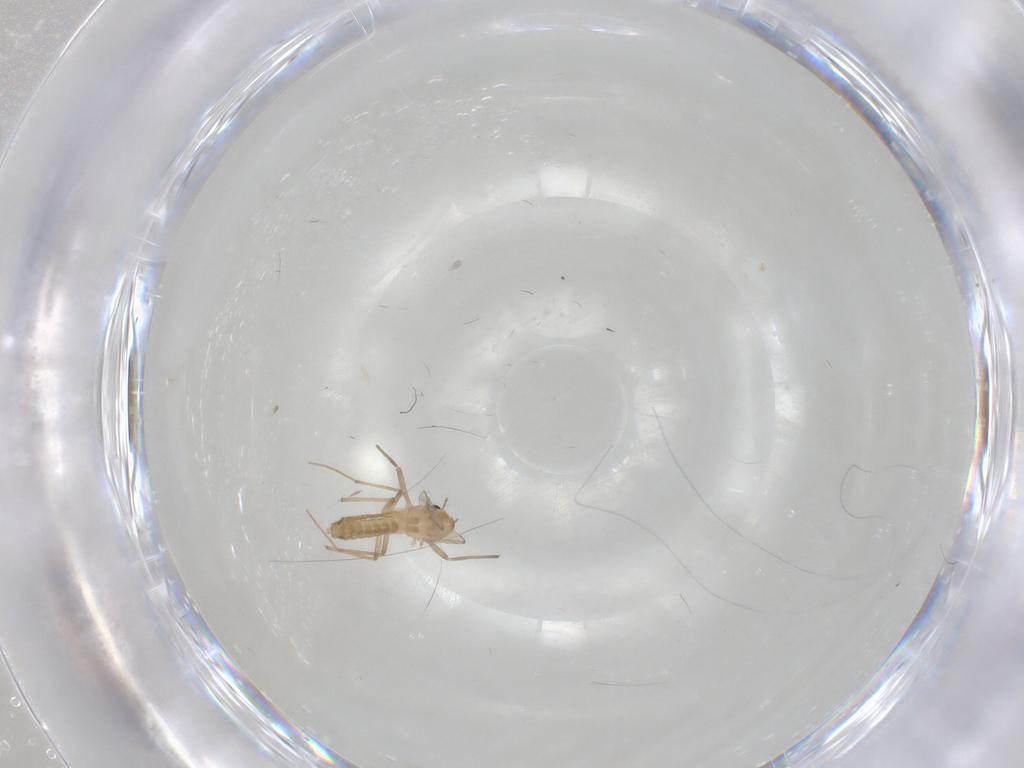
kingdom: Animalia
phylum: Arthropoda
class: Insecta
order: Diptera
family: Chironomidae
